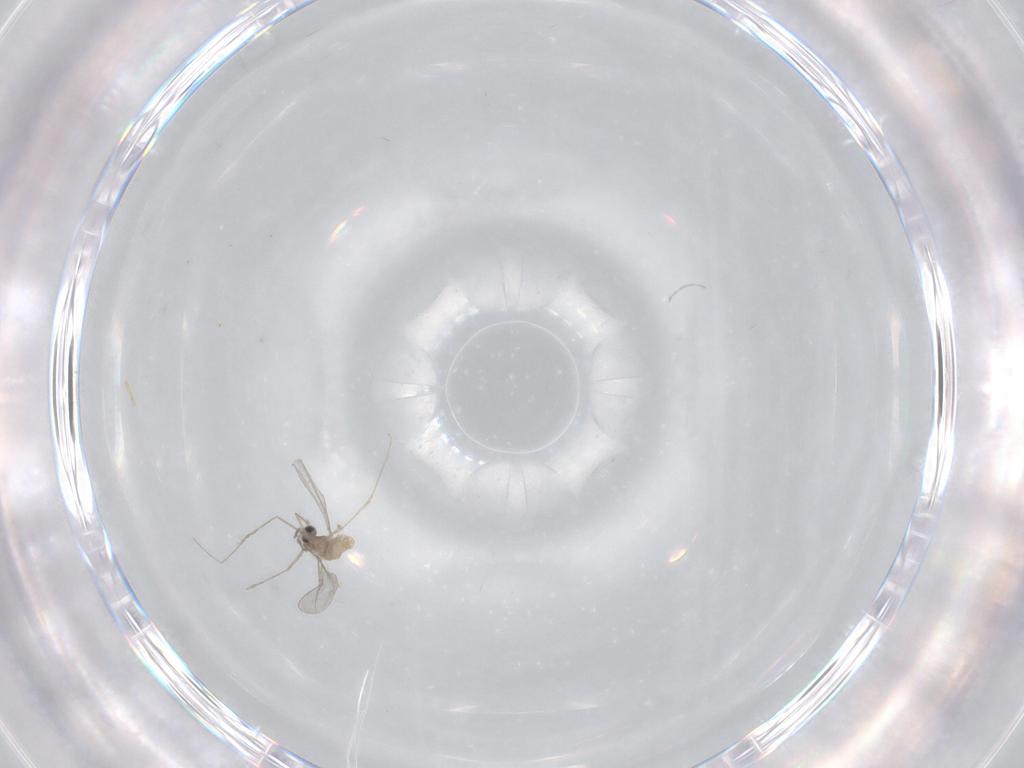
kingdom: Animalia
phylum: Arthropoda
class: Insecta
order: Diptera
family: Cecidomyiidae
